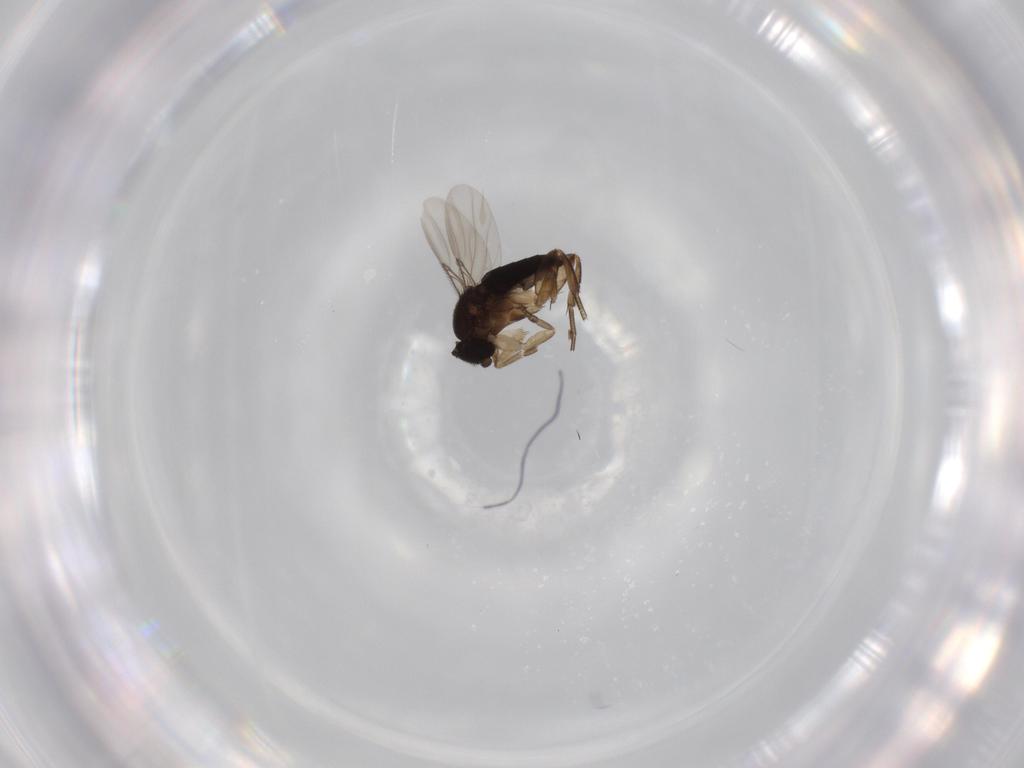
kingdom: Animalia
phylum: Arthropoda
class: Insecta
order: Diptera
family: Phoridae
